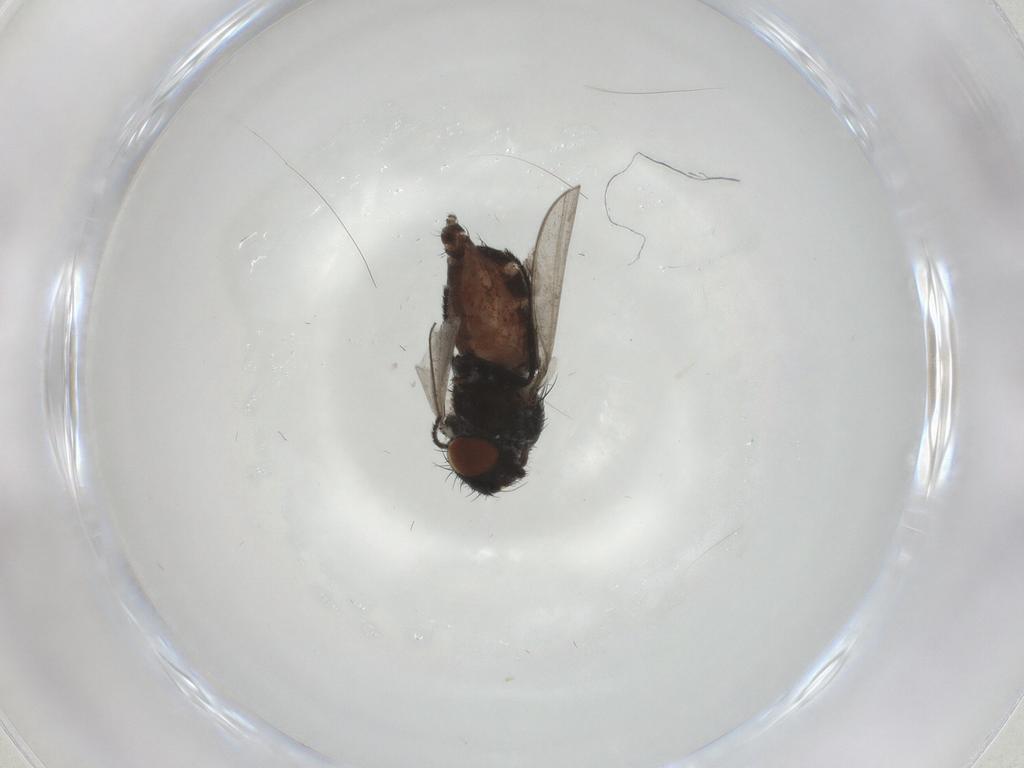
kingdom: Animalia
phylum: Arthropoda
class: Insecta
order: Diptera
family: Milichiidae
